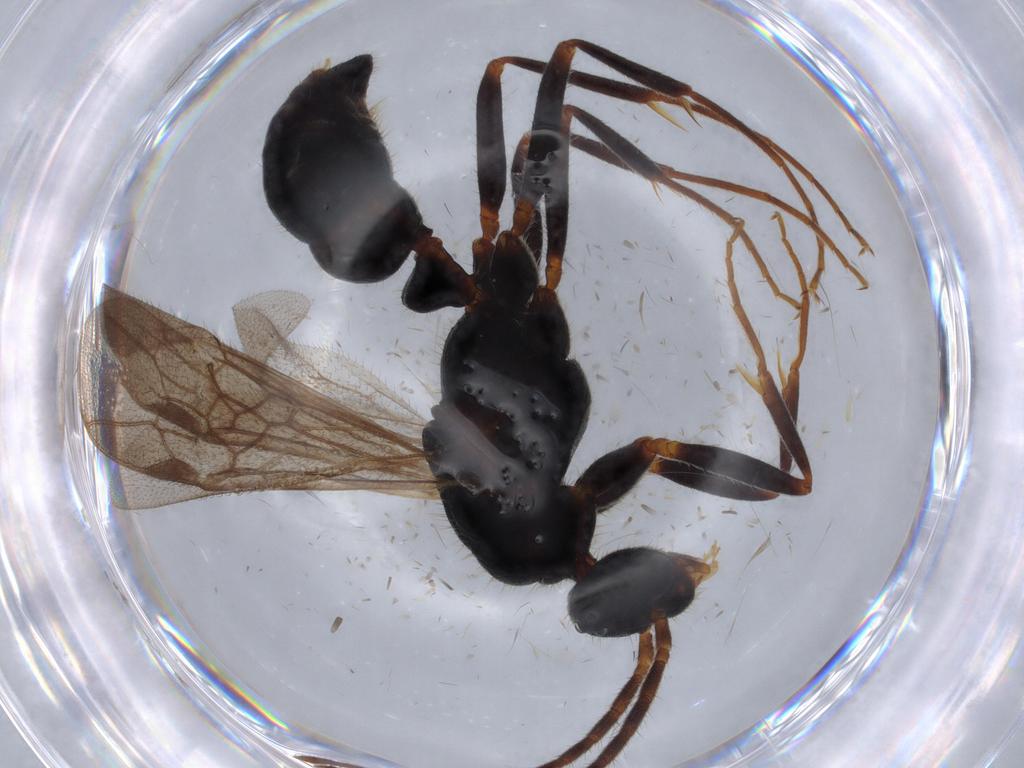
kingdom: Animalia
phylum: Arthropoda
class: Insecta
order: Hymenoptera
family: Formicidae
